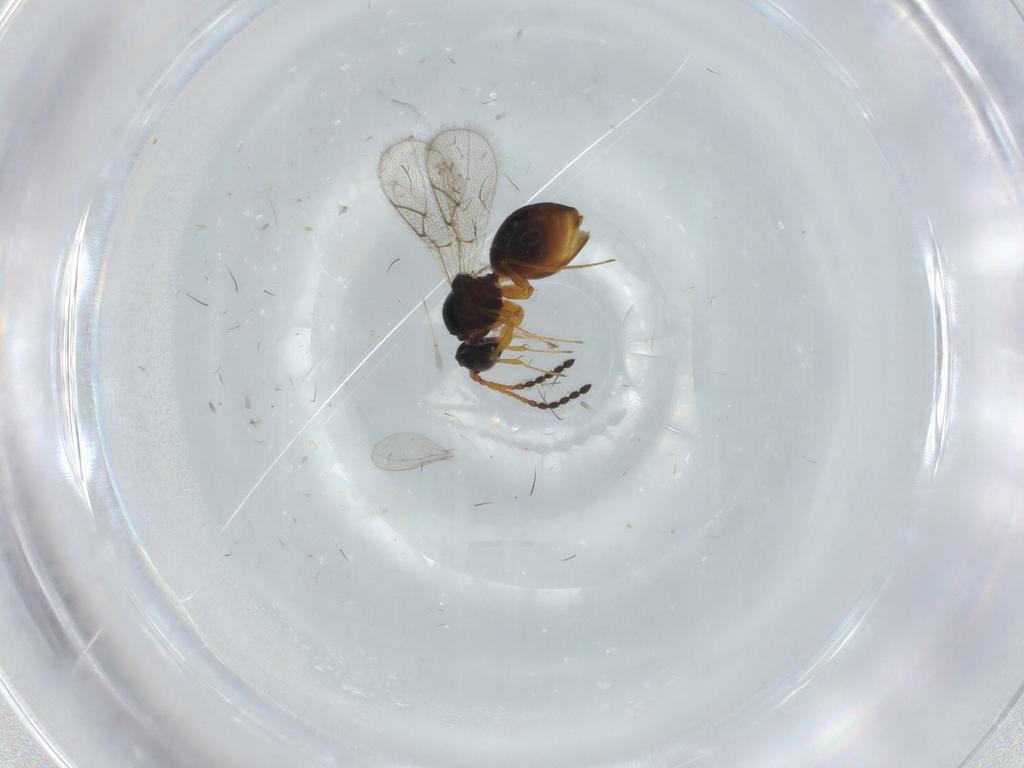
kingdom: Animalia
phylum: Arthropoda
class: Insecta
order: Hymenoptera
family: Figitidae
